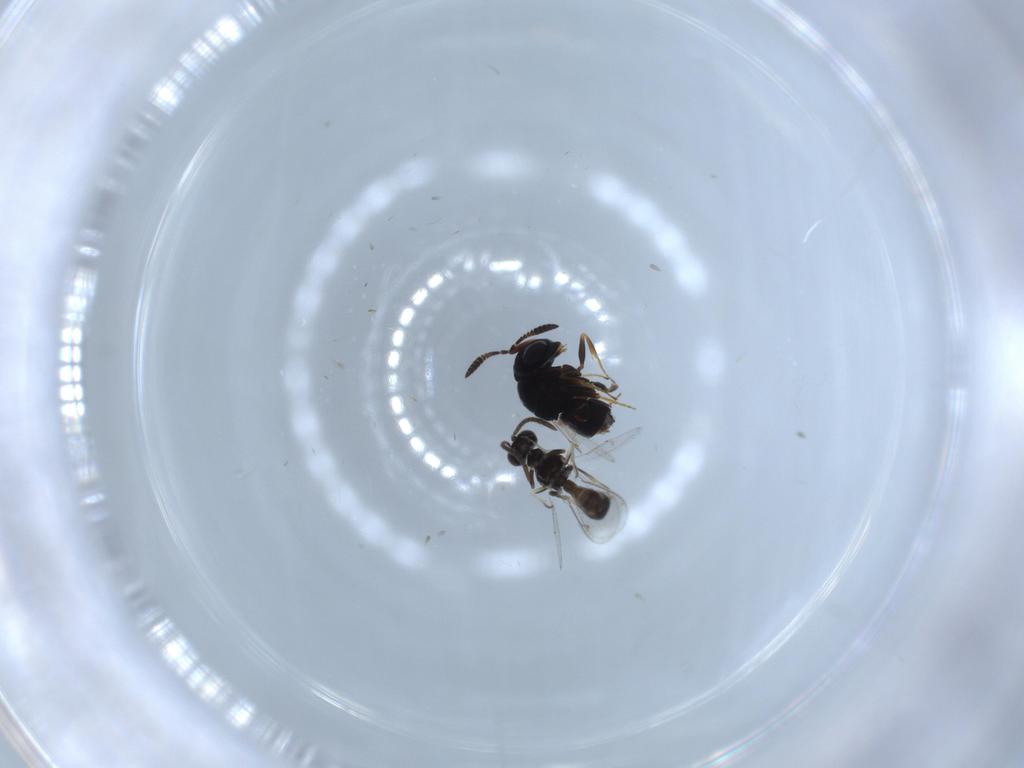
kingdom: Animalia
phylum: Arthropoda
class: Insecta
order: Hymenoptera
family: Scelionidae
